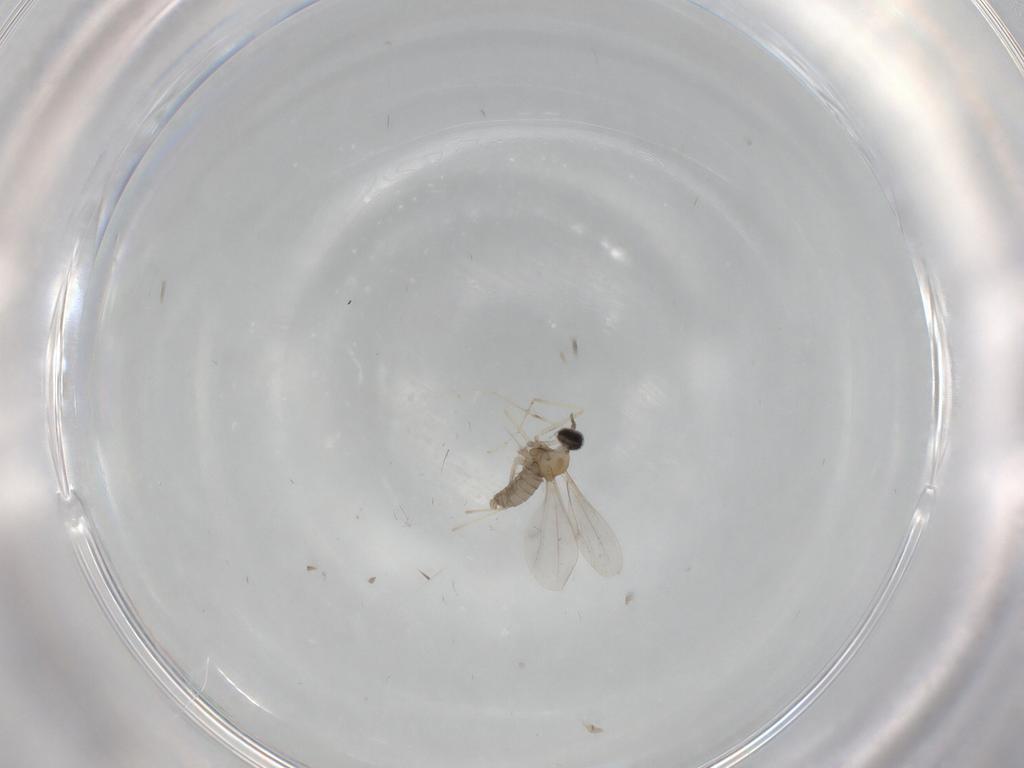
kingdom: Animalia
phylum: Arthropoda
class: Insecta
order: Diptera
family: Cecidomyiidae
